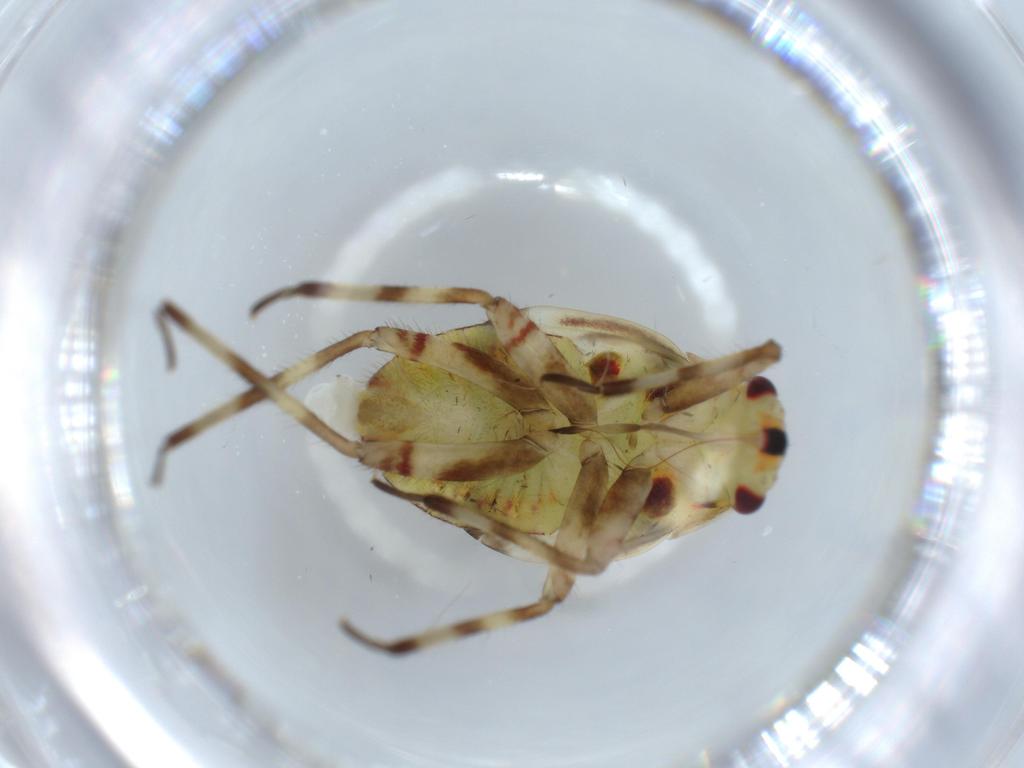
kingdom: Animalia
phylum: Arthropoda
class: Insecta
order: Hemiptera
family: Miridae
